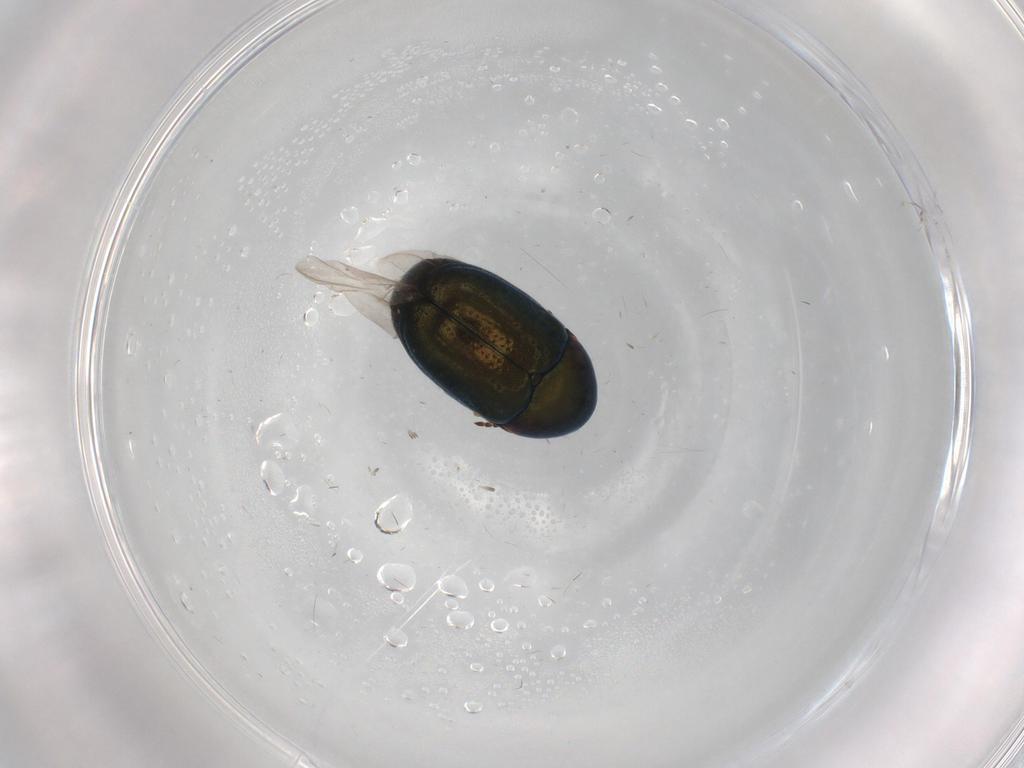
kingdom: Animalia
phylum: Arthropoda
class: Insecta
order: Coleoptera
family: Chrysomelidae
